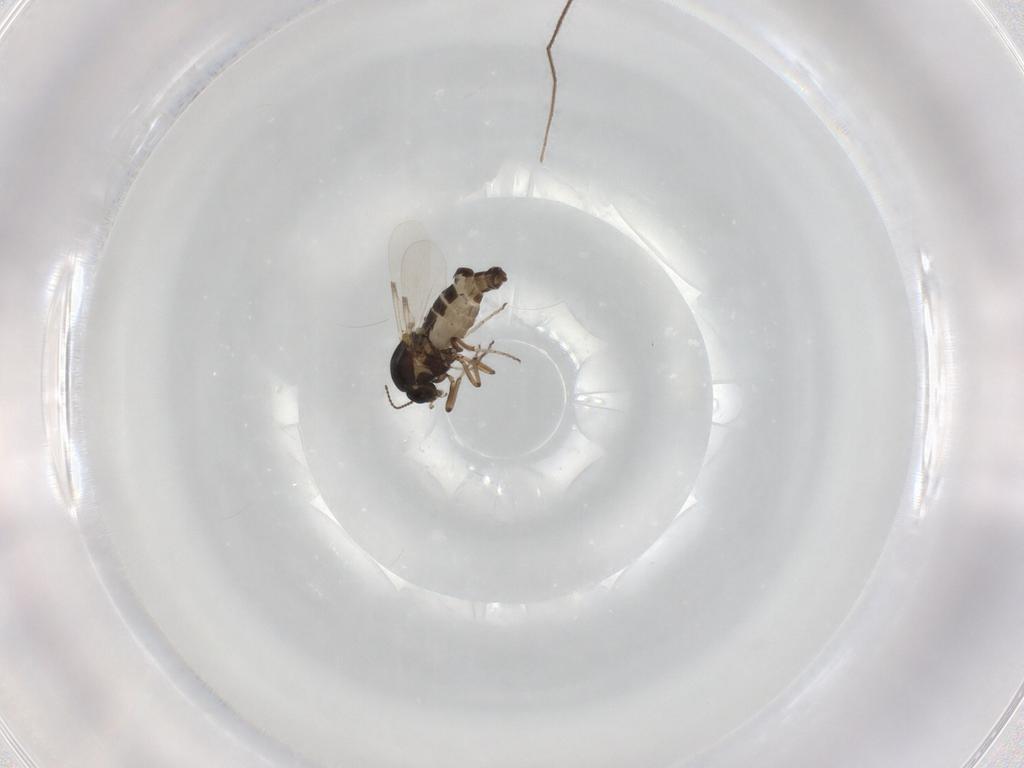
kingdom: Animalia
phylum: Arthropoda
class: Insecta
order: Diptera
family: Ceratopogonidae
